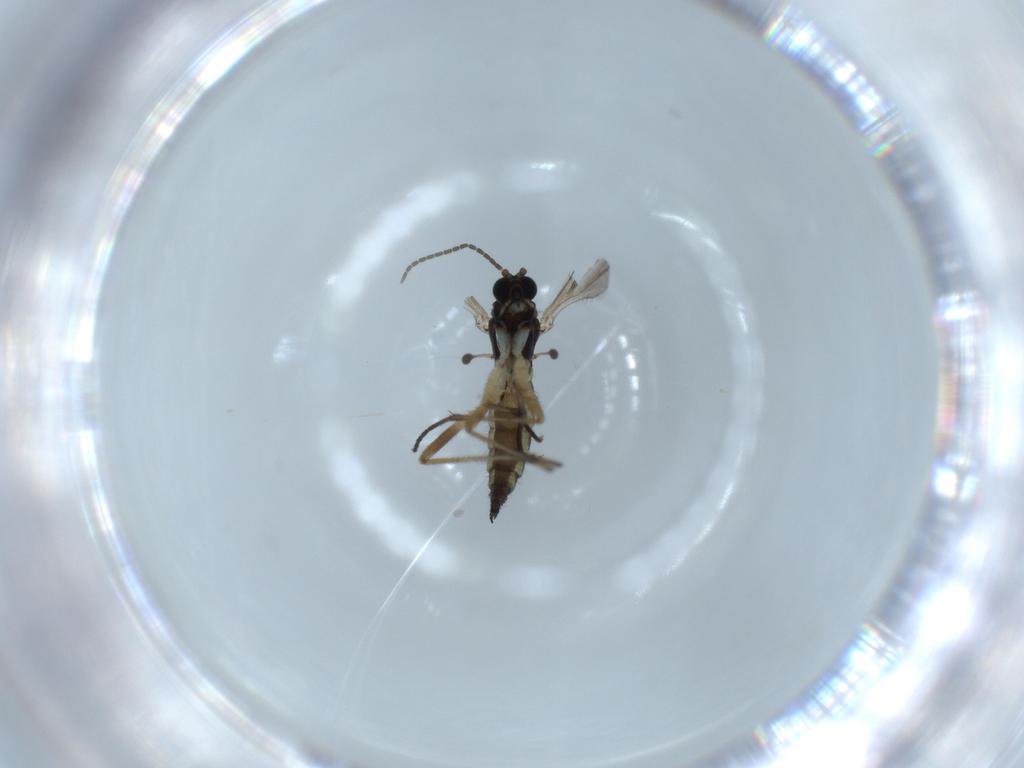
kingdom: Animalia
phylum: Arthropoda
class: Insecta
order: Diptera
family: Sciaridae
